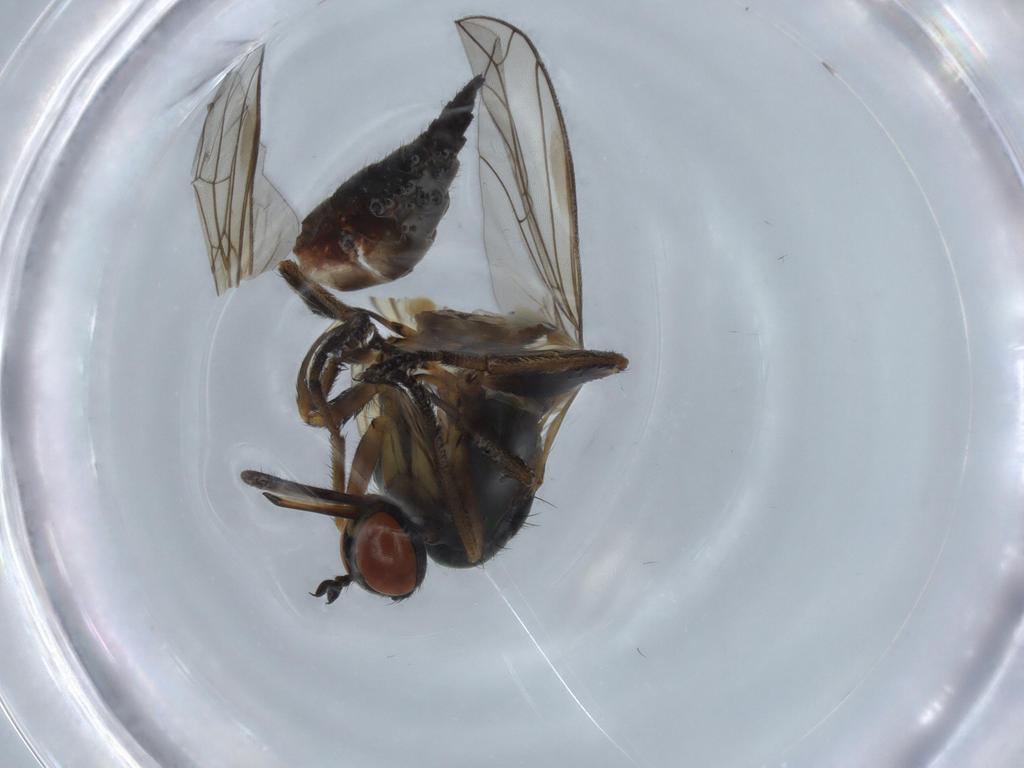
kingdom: Animalia
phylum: Arthropoda
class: Insecta
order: Diptera
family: Empididae
